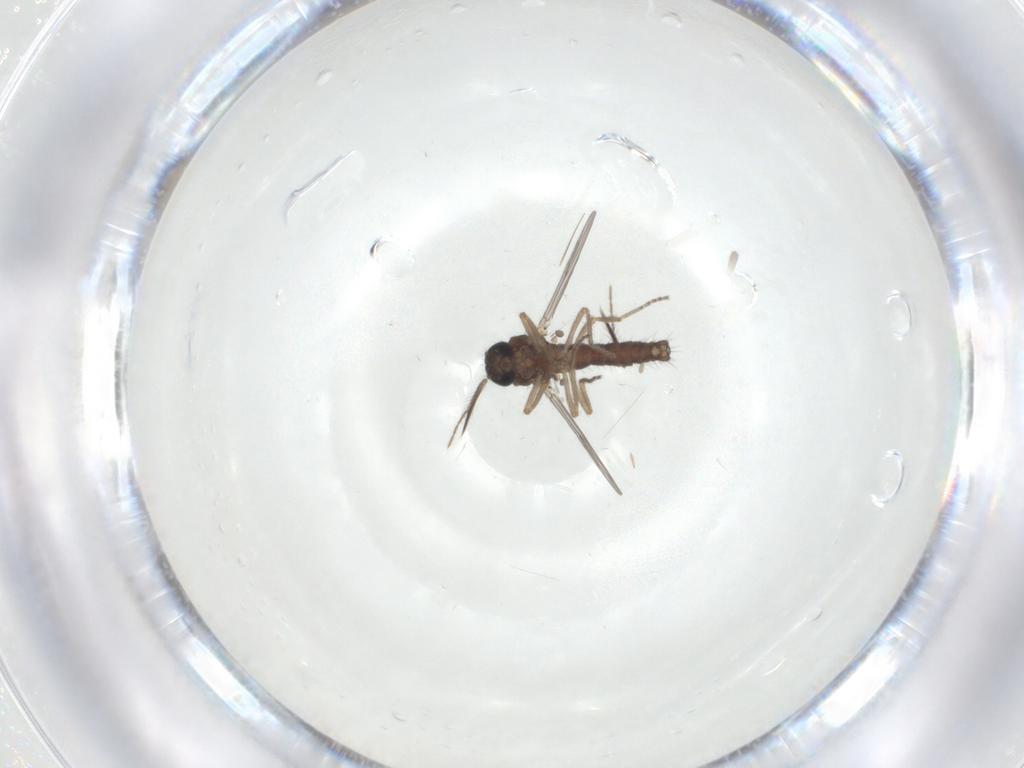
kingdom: Animalia
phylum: Arthropoda
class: Insecta
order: Diptera
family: Ceratopogonidae
